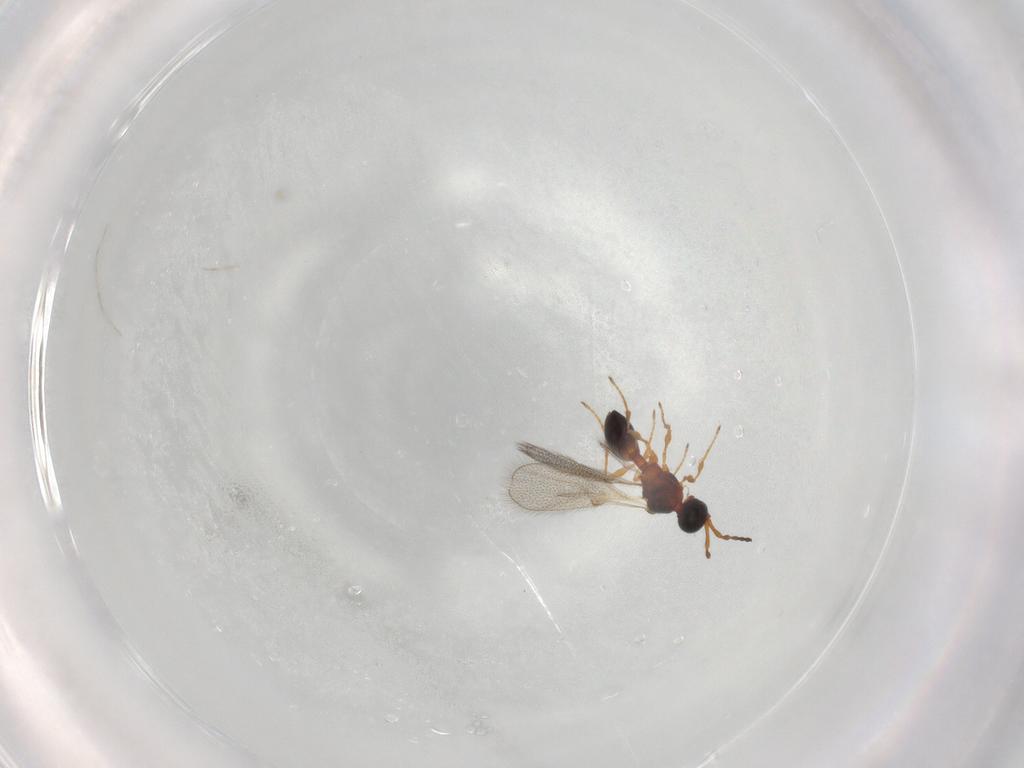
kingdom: Animalia
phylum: Arthropoda
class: Insecta
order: Hymenoptera
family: Diapriidae
